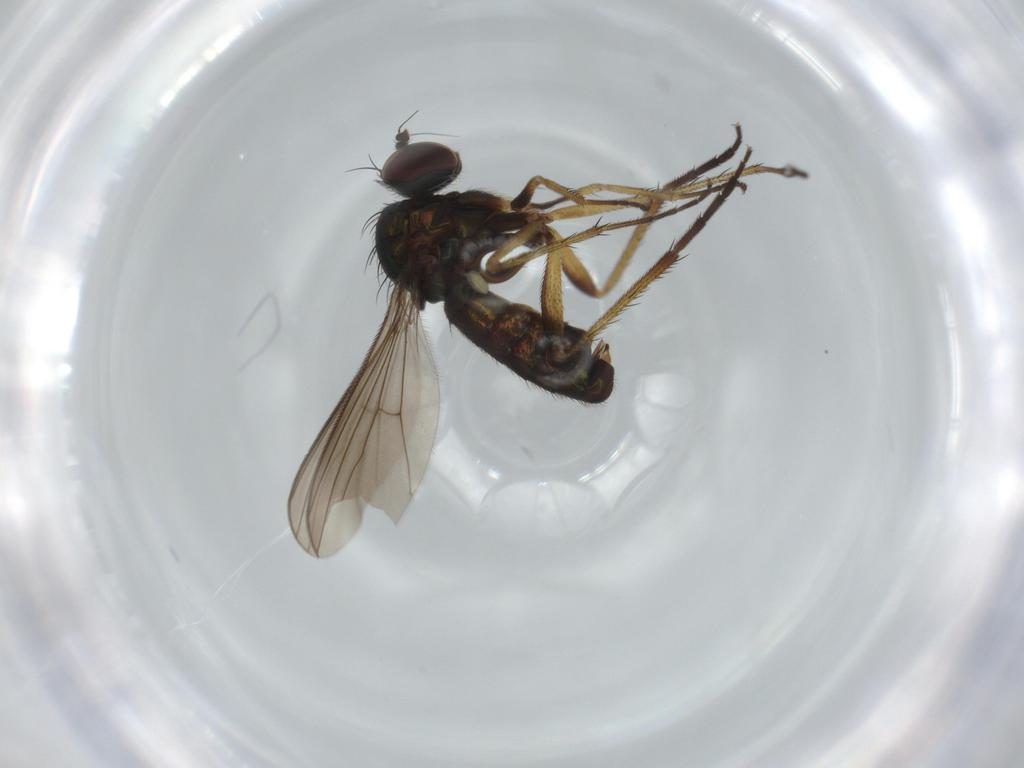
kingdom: Animalia
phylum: Arthropoda
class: Insecta
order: Diptera
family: Dolichopodidae
